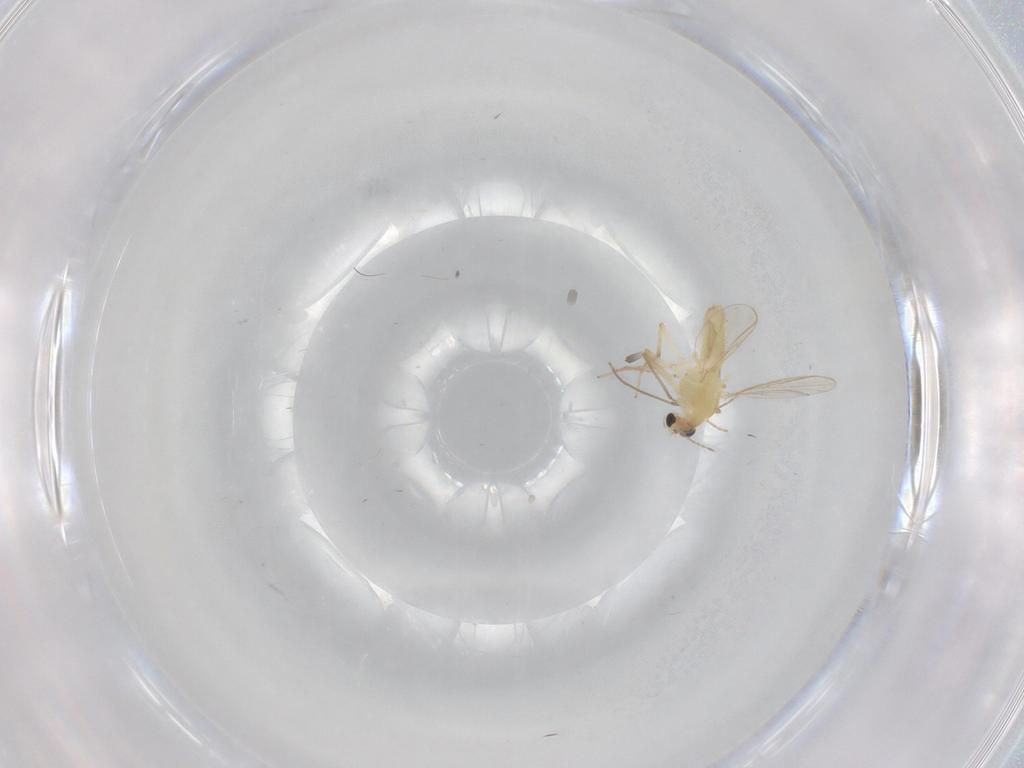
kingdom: Animalia
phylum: Arthropoda
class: Insecta
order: Diptera
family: Chironomidae
